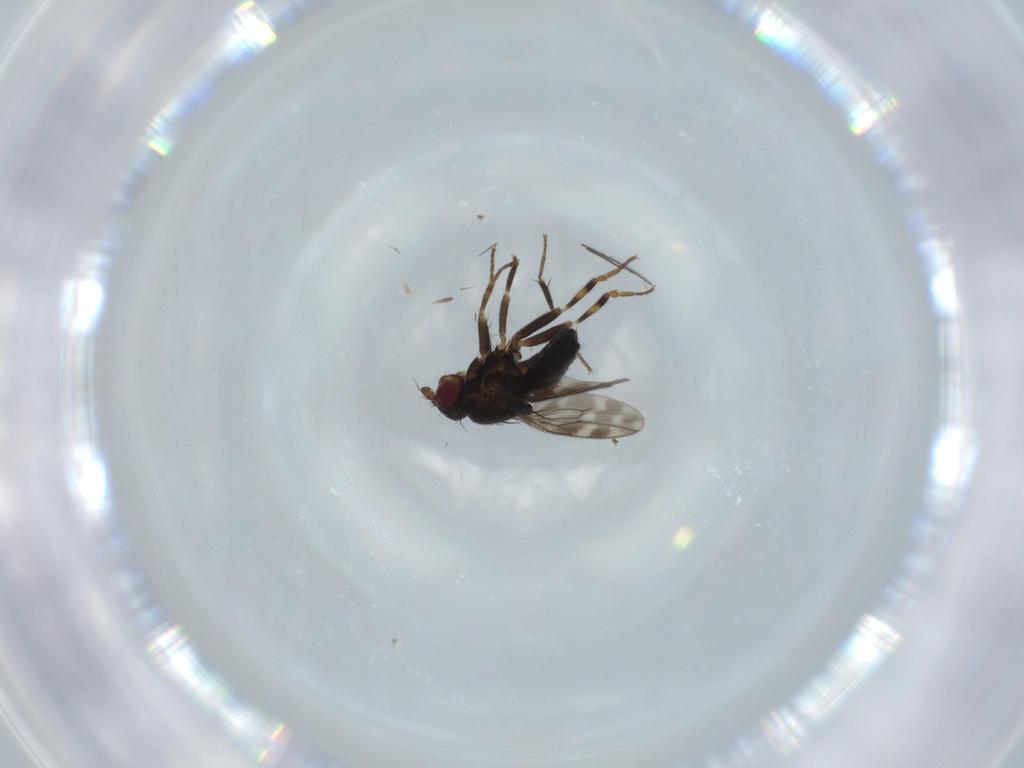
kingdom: Animalia
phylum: Arthropoda
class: Insecta
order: Diptera
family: Sphaeroceridae
